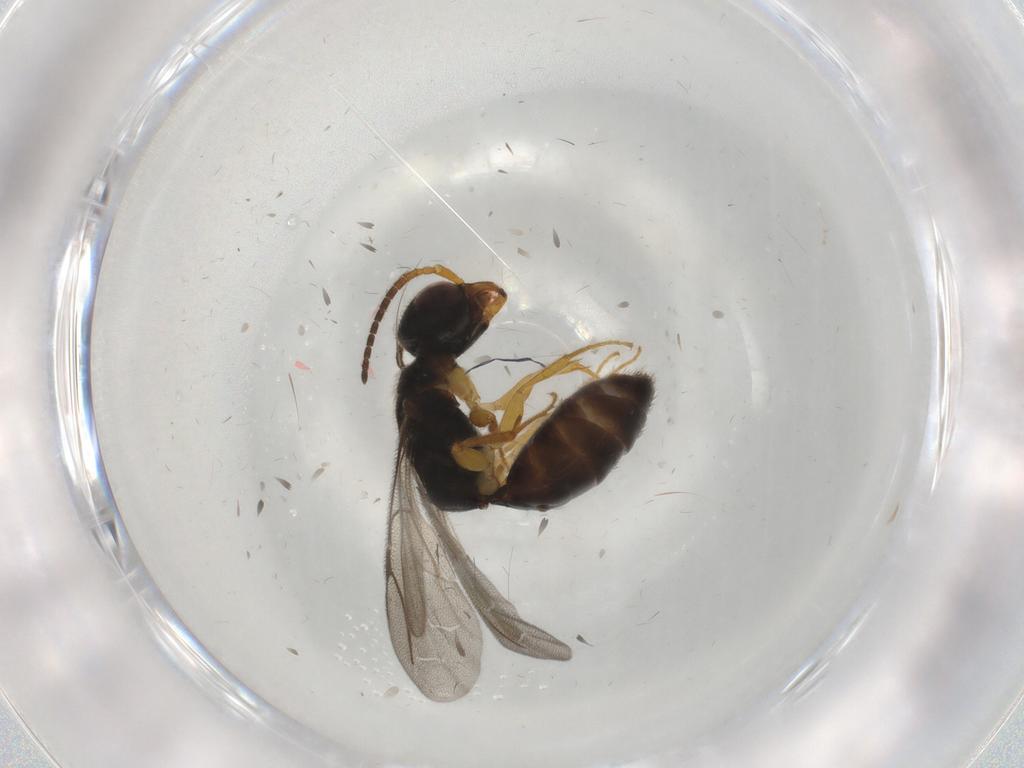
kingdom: Animalia
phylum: Arthropoda
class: Insecta
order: Hymenoptera
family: Bethylidae
